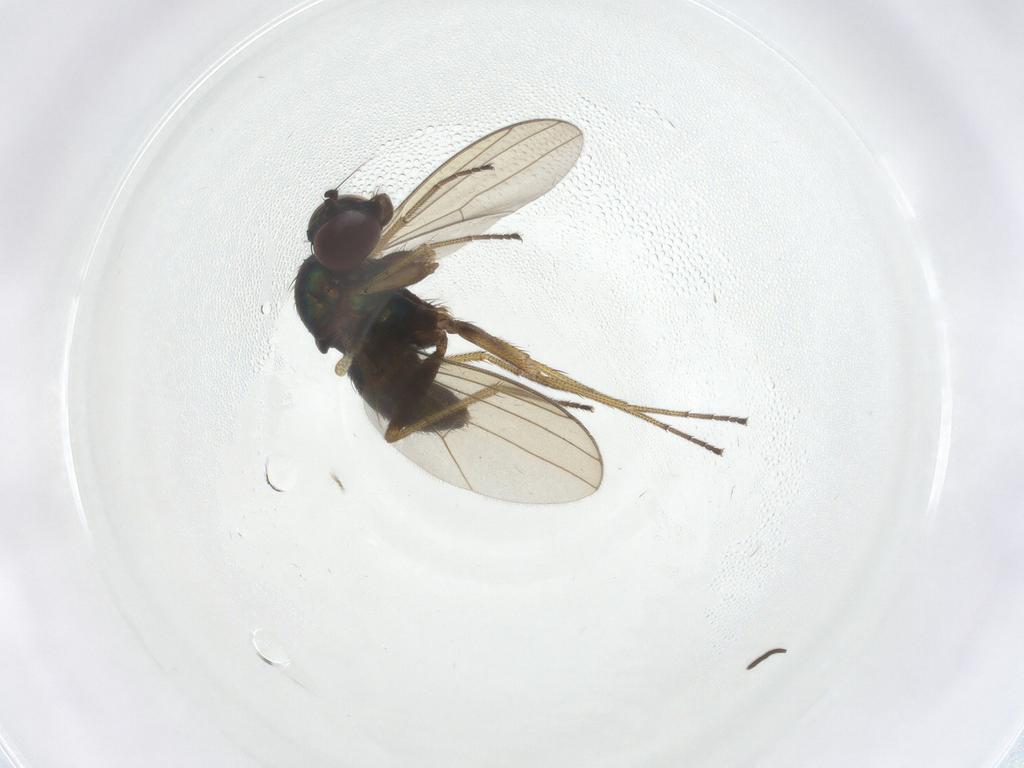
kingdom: Animalia
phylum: Arthropoda
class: Insecta
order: Diptera
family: Dolichopodidae
